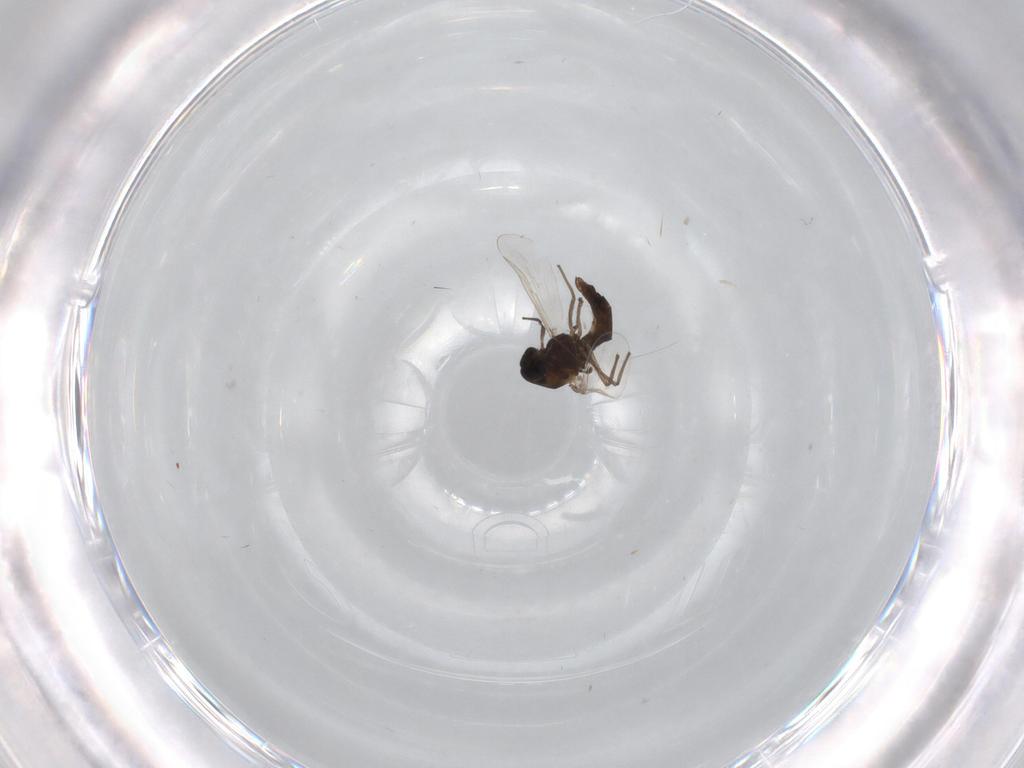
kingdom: Animalia
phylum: Arthropoda
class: Insecta
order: Diptera
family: Chironomidae
